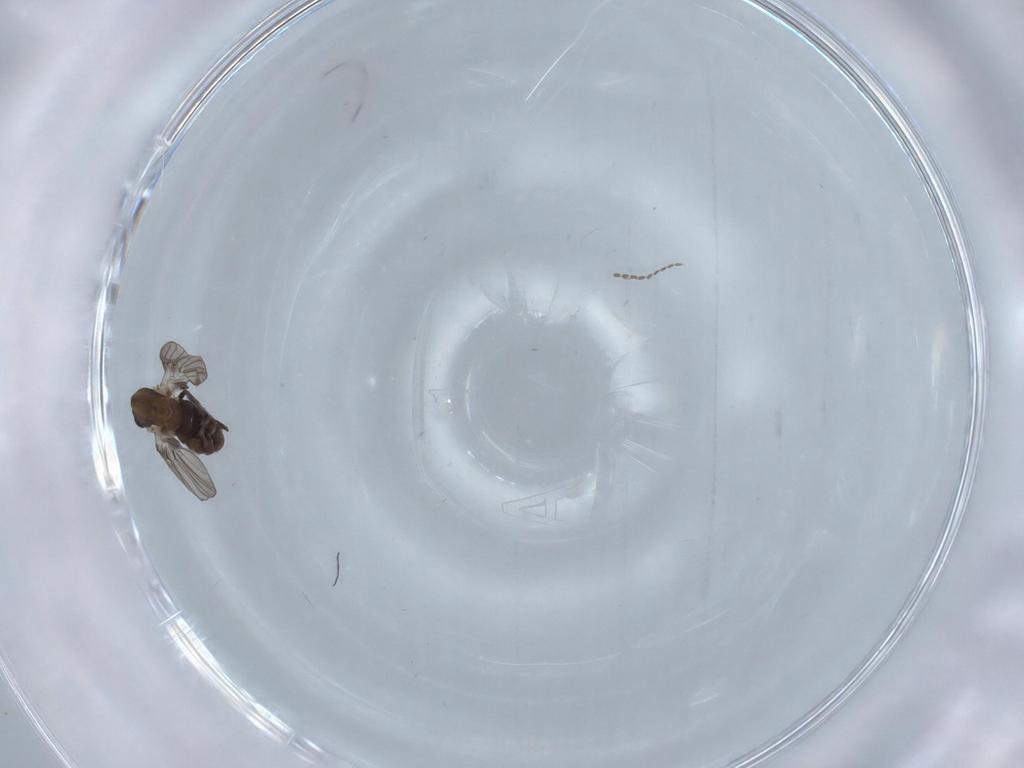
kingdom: Animalia
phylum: Arthropoda
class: Insecta
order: Diptera
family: Psychodidae
